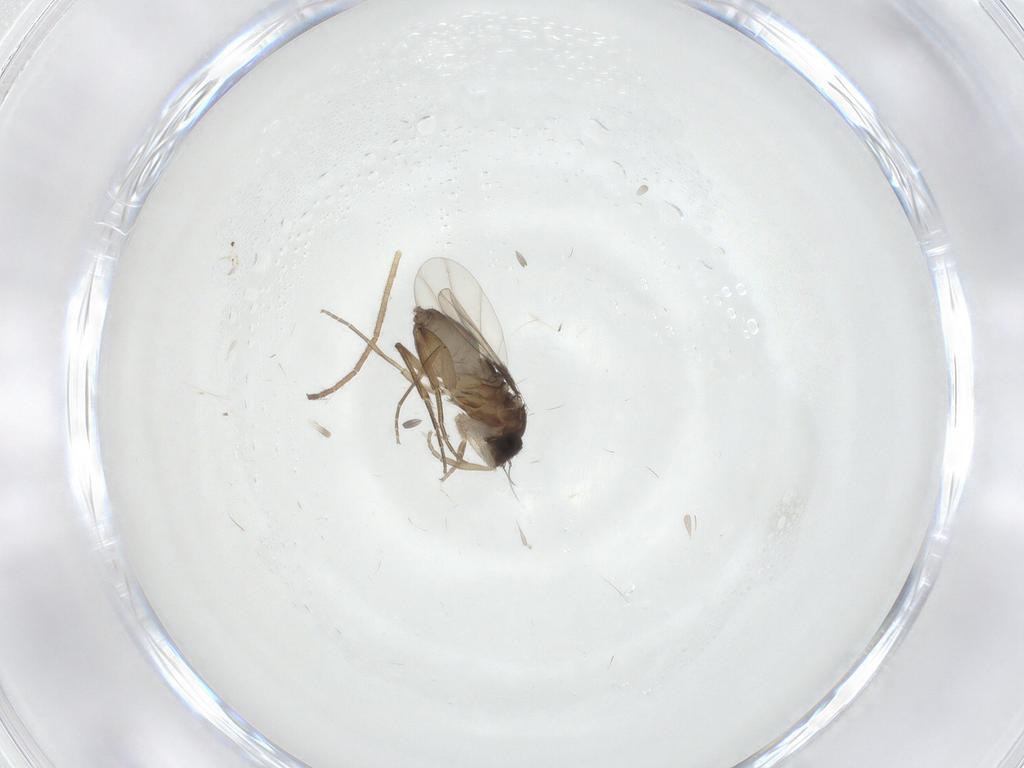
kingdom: Animalia
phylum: Arthropoda
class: Insecta
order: Diptera
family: Phoridae
